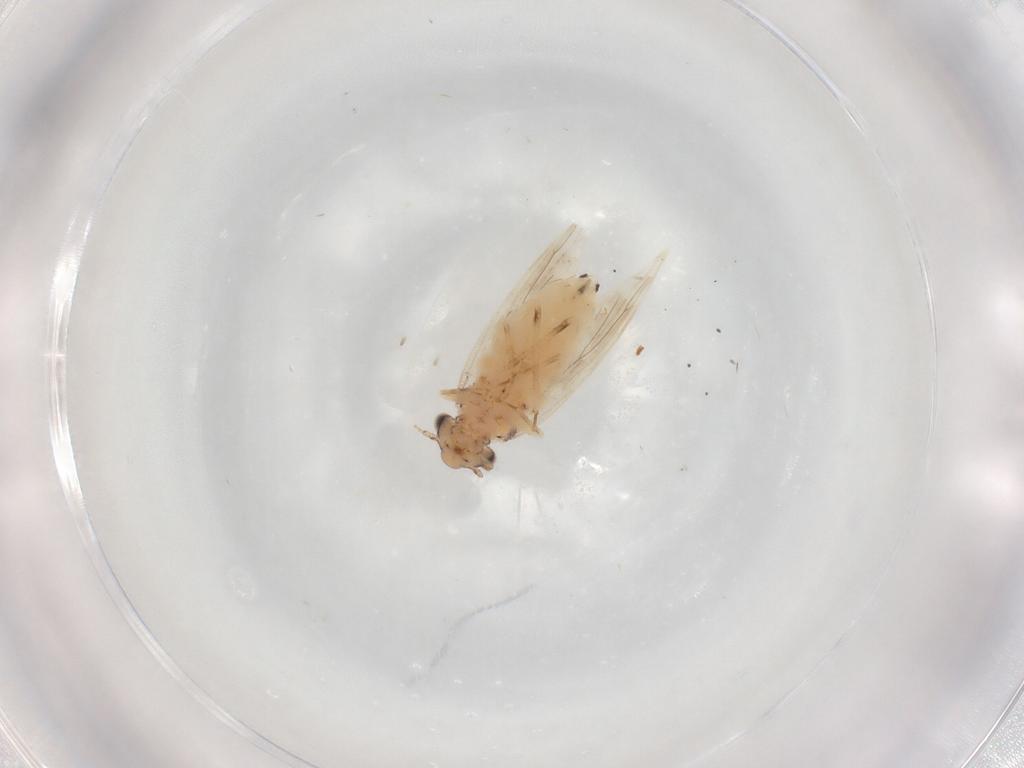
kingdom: Animalia
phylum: Arthropoda
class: Insecta
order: Psocodea
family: Lepidopsocidae
